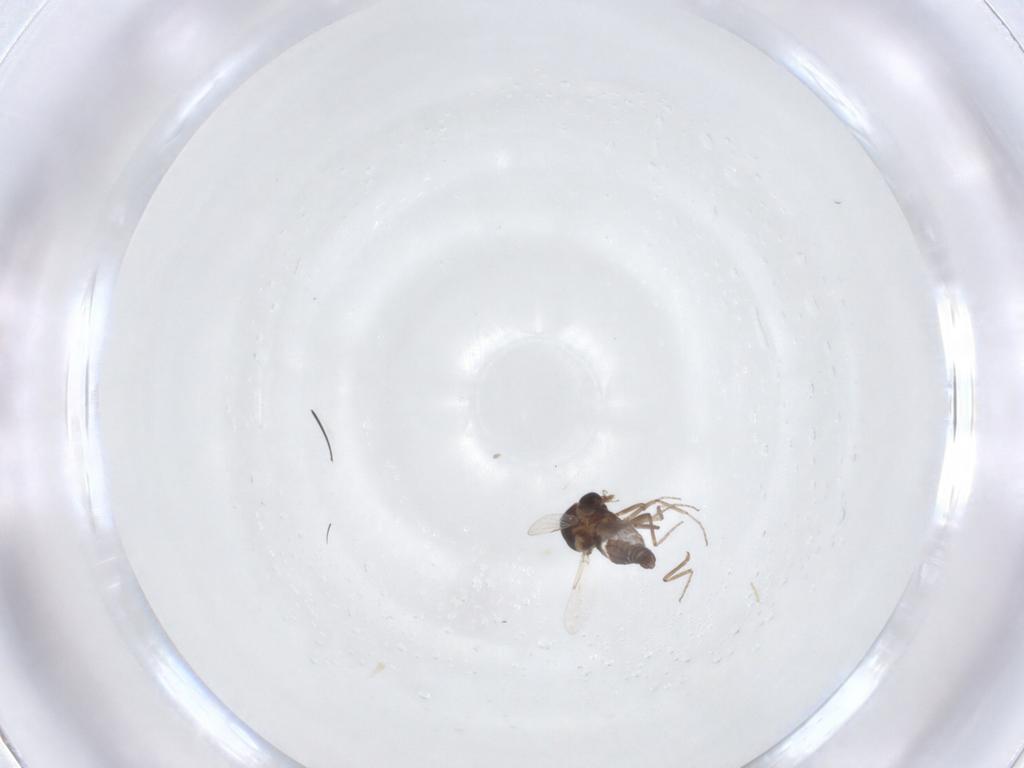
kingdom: Animalia
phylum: Arthropoda
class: Insecta
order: Diptera
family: Ceratopogonidae
